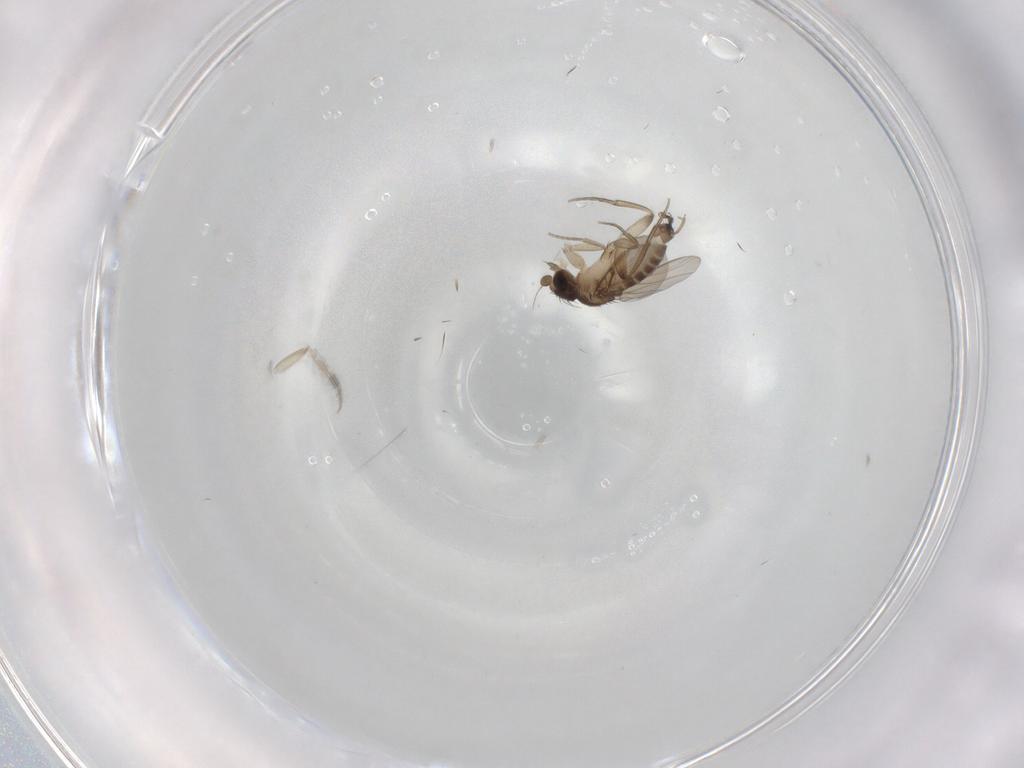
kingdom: Animalia
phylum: Arthropoda
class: Insecta
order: Diptera
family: Phoridae
